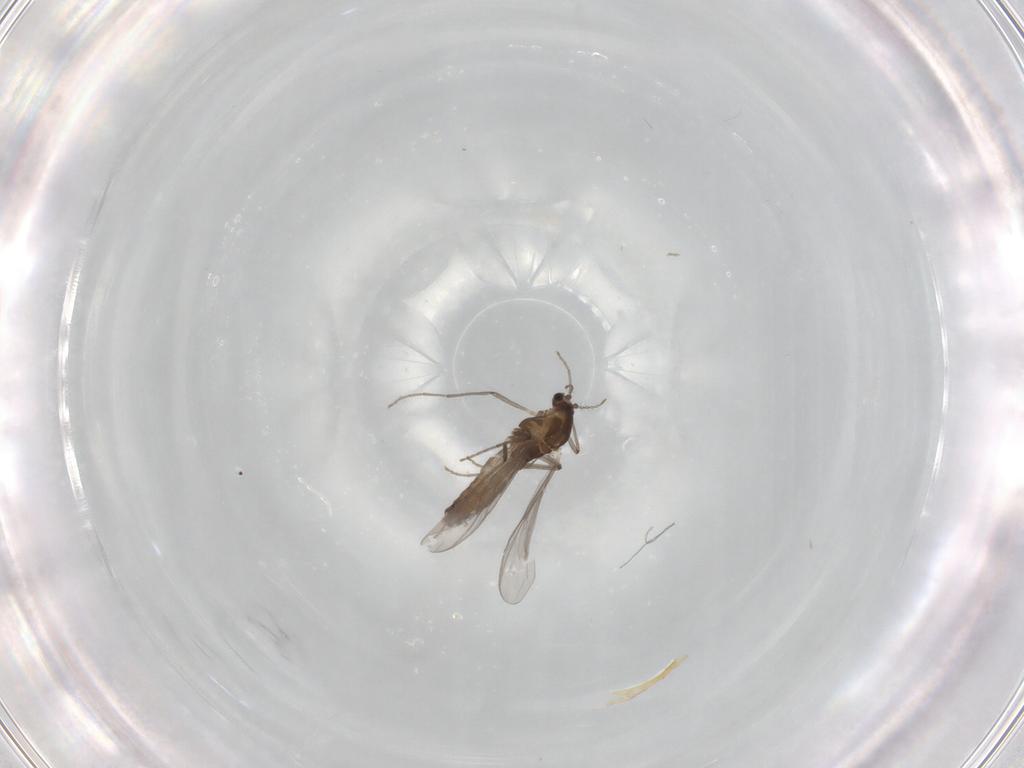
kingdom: Animalia
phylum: Arthropoda
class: Insecta
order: Diptera
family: Chironomidae
